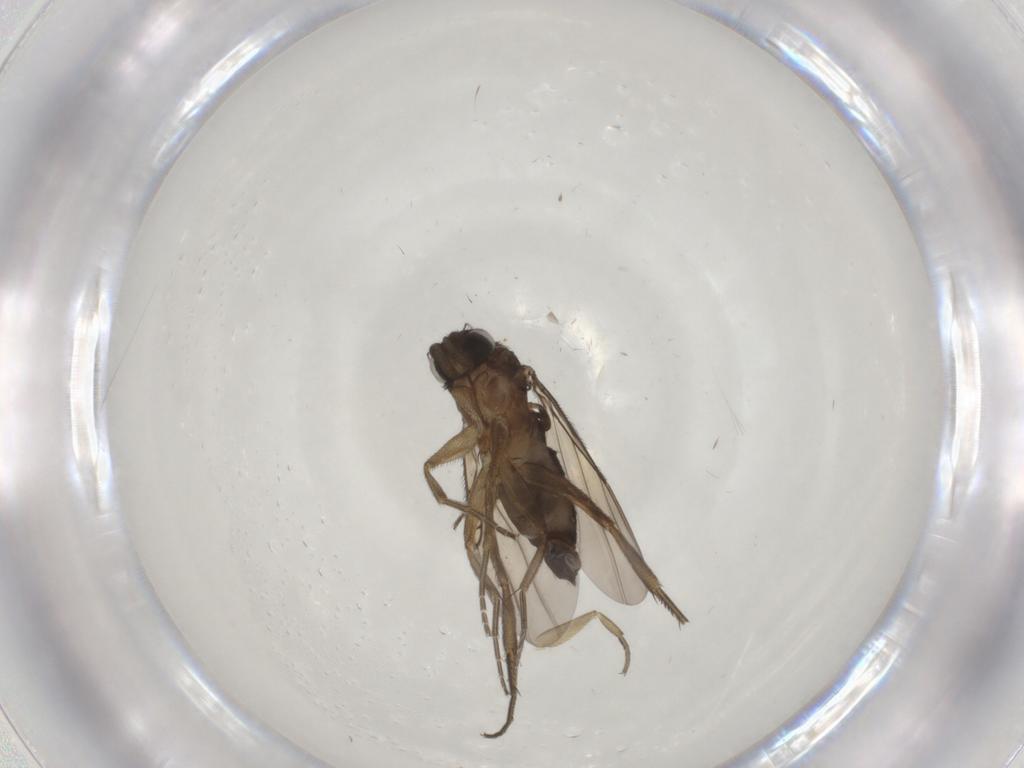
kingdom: Animalia
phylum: Arthropoda
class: Insecta
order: Diptera
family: Phoridae
